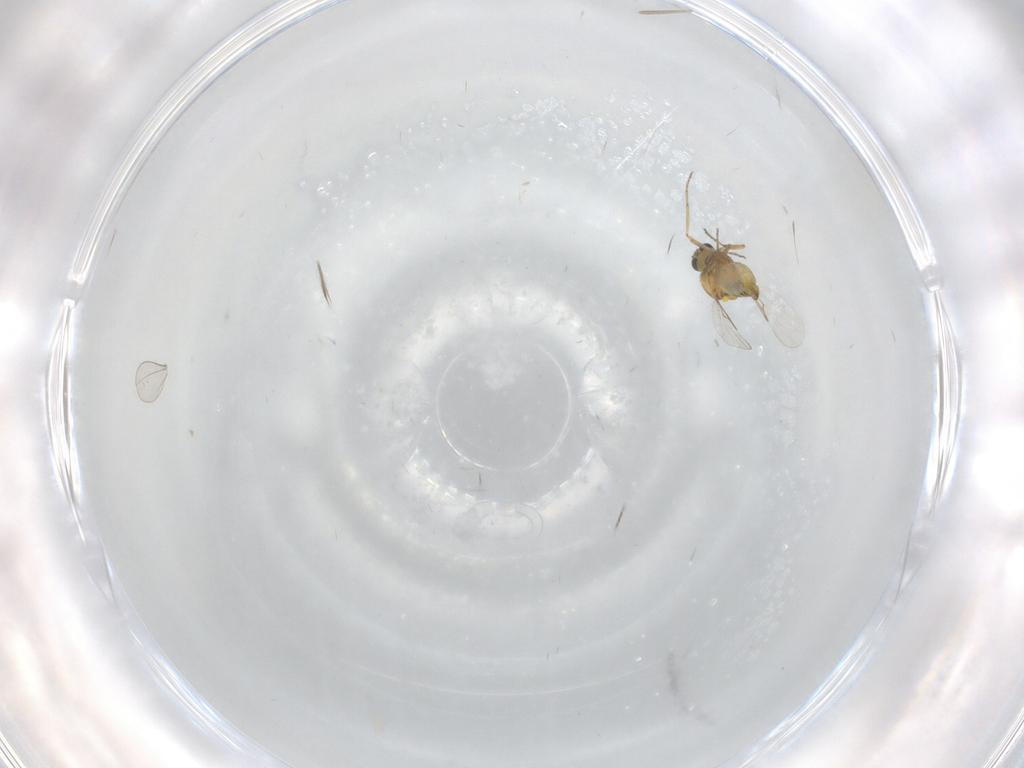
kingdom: Animalia
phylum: Arthropoda
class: Insecta
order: Diptera
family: Cecidomyiidae
